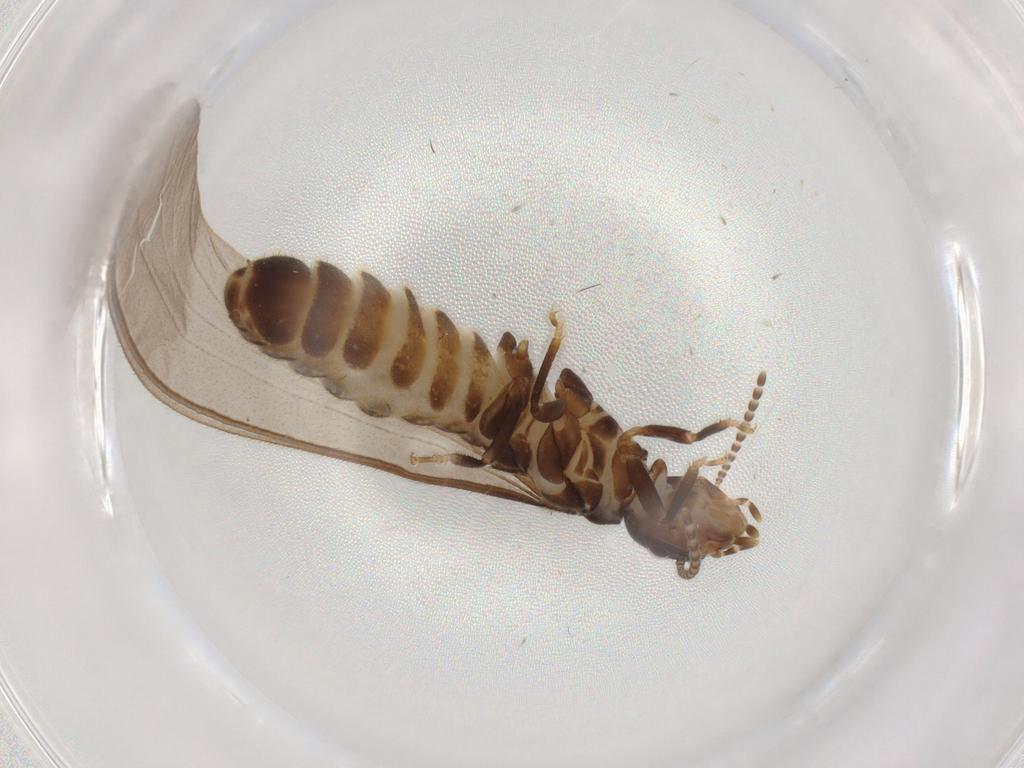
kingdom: Animalia
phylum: Arthropoda
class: Insecta
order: Blattodea
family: Termitidae
